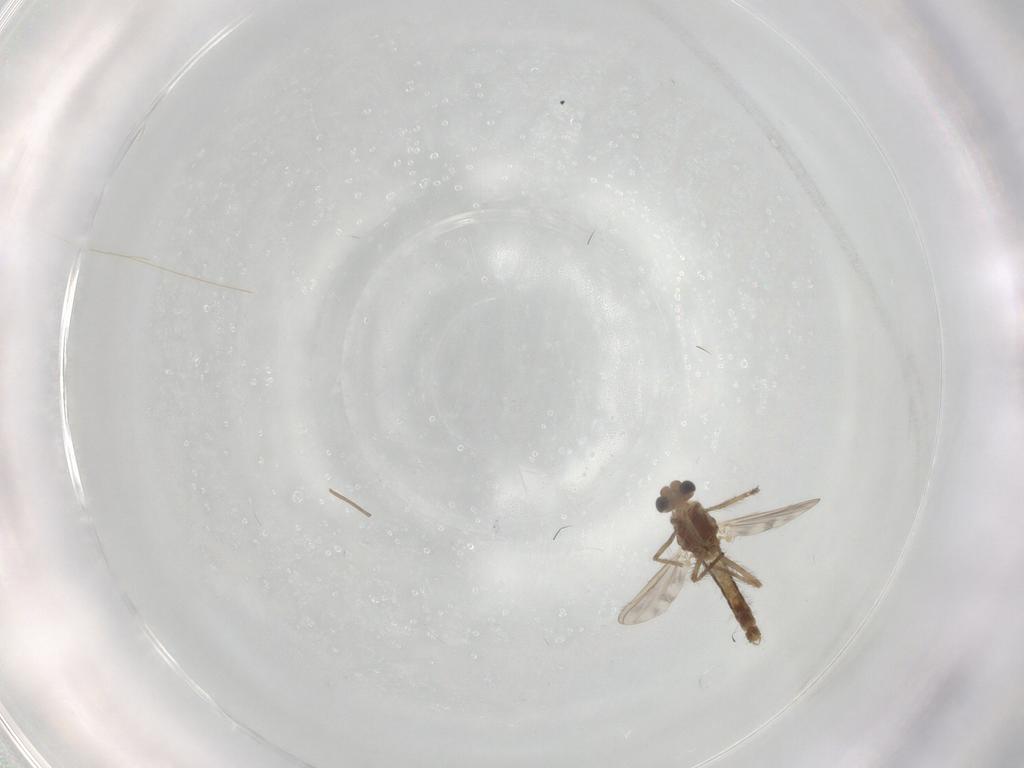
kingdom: Animalia
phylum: Arthropoda
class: Insecta
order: Diptera
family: Chironomidae
